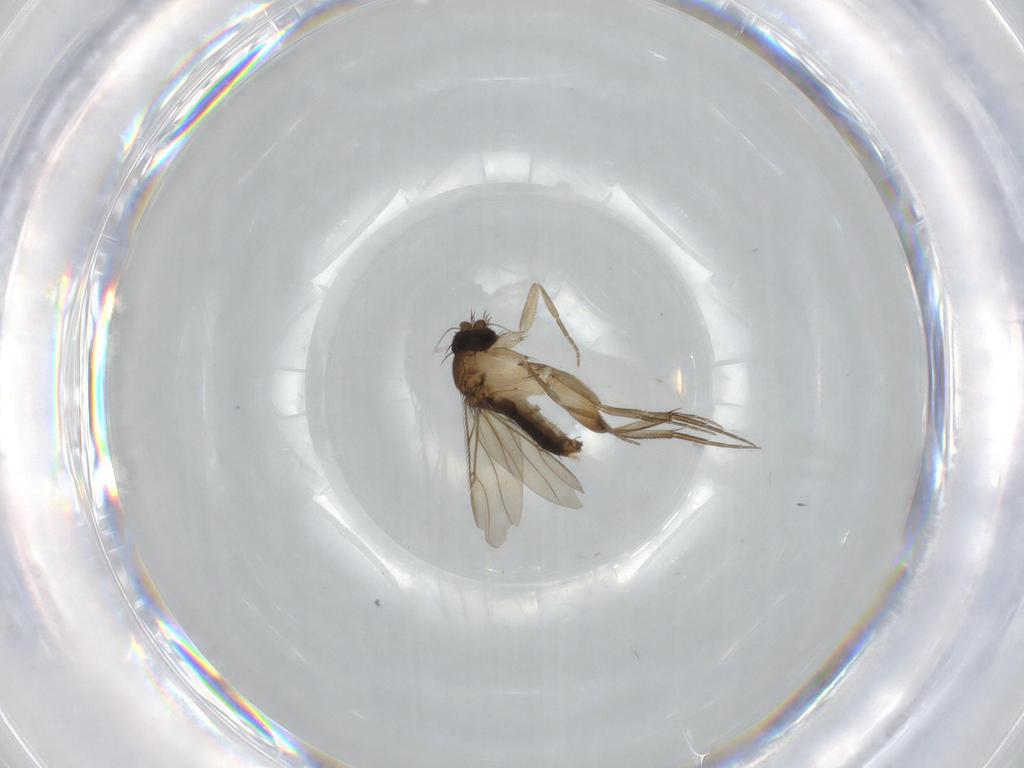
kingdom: Animalia
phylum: Arthropoda
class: Insecta
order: Diptera
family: Phoridae
